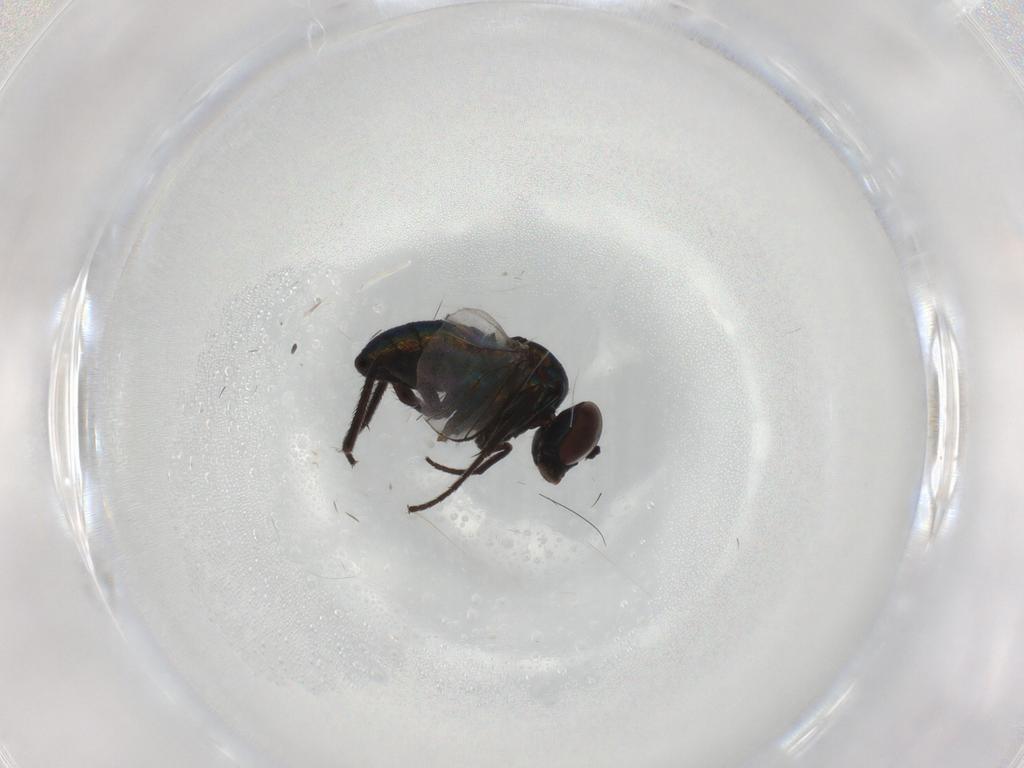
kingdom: Animalia
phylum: Arthropoda
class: Insecta
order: Diptera
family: Chironomidae
